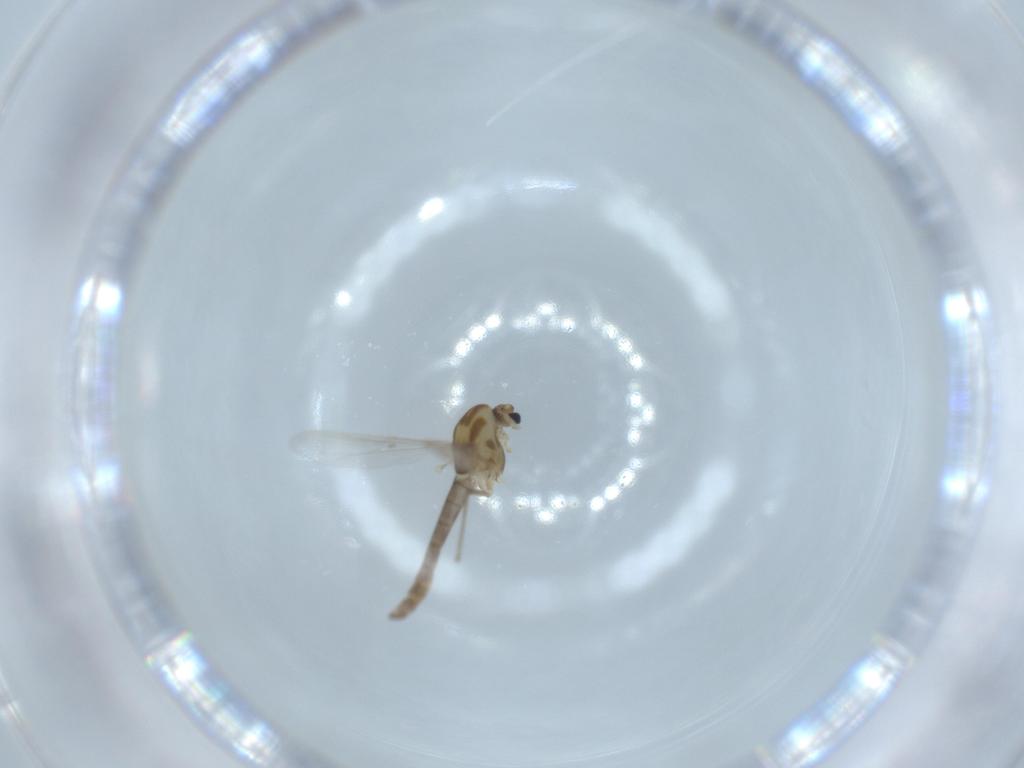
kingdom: Animalia
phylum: Arthropoda
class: Insecta
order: Diptera
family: Chironomidae
